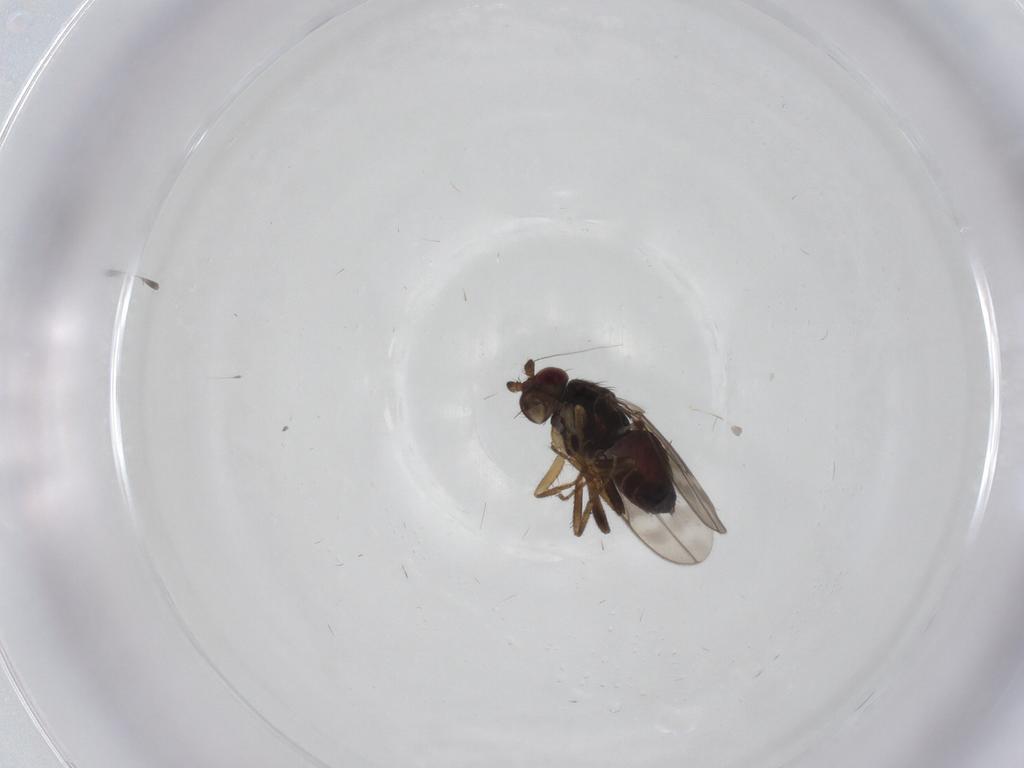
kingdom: Animalia
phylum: Arthropoda
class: Insecta
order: Diptera
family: Sphaeroceridae
